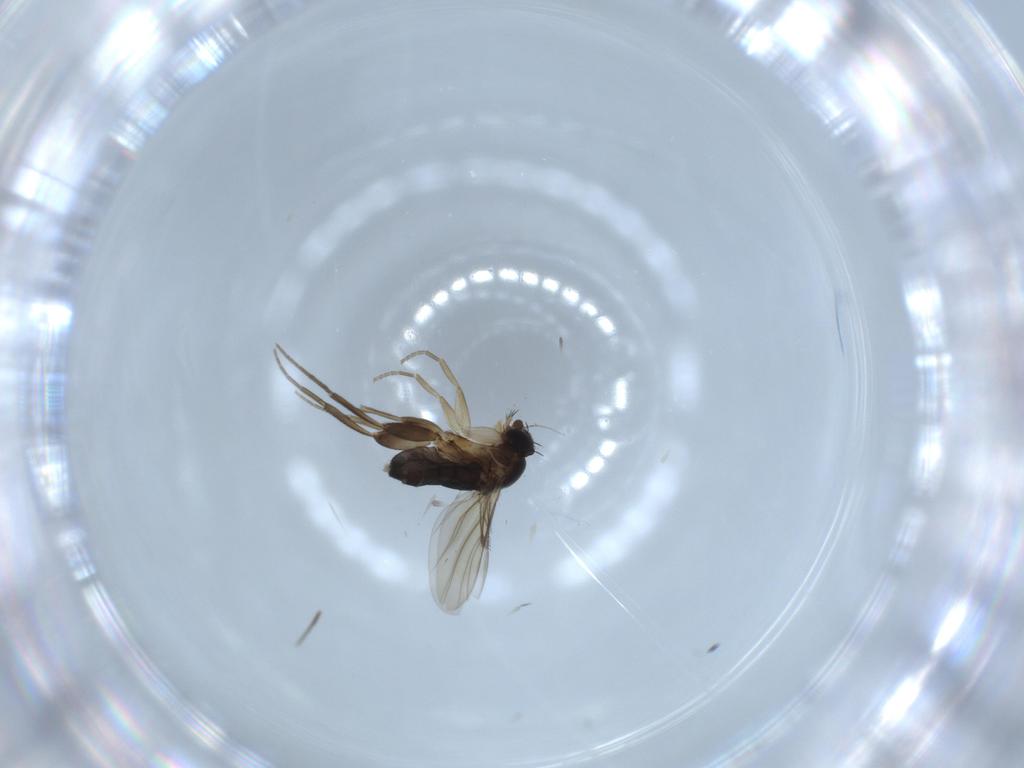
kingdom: Animalia
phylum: Arthropoda
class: Insecta
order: Diptera
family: Phoridae
